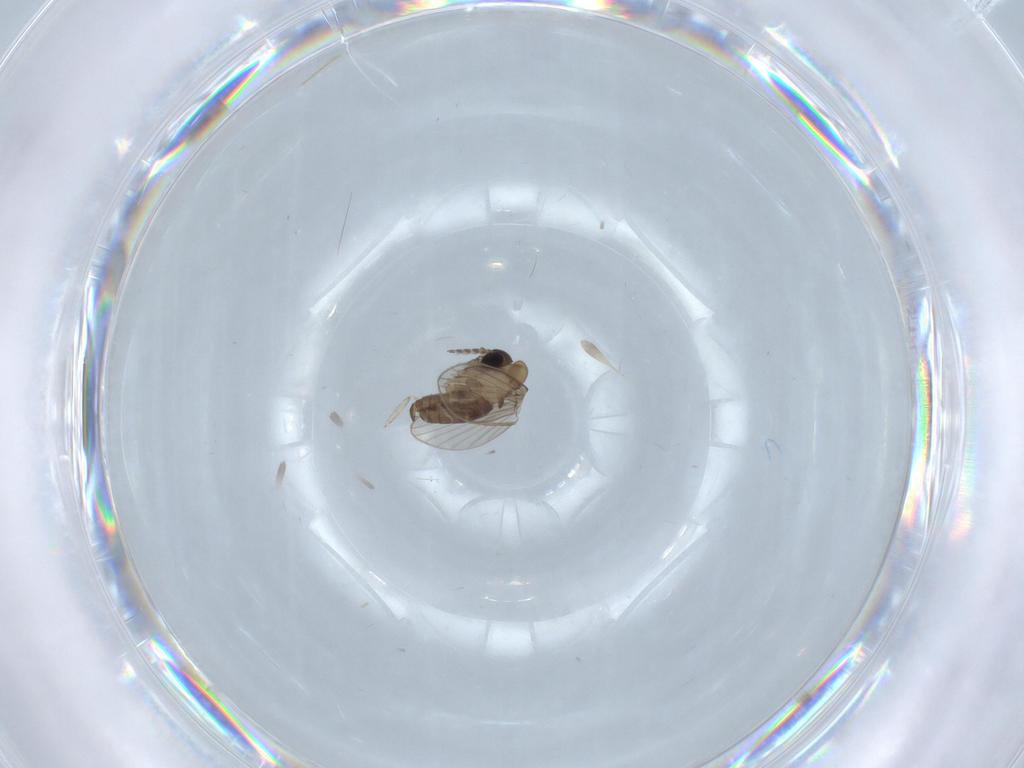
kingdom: Animalia
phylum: Arthropoda
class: Insecta
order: Diptera
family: Psychodidae
